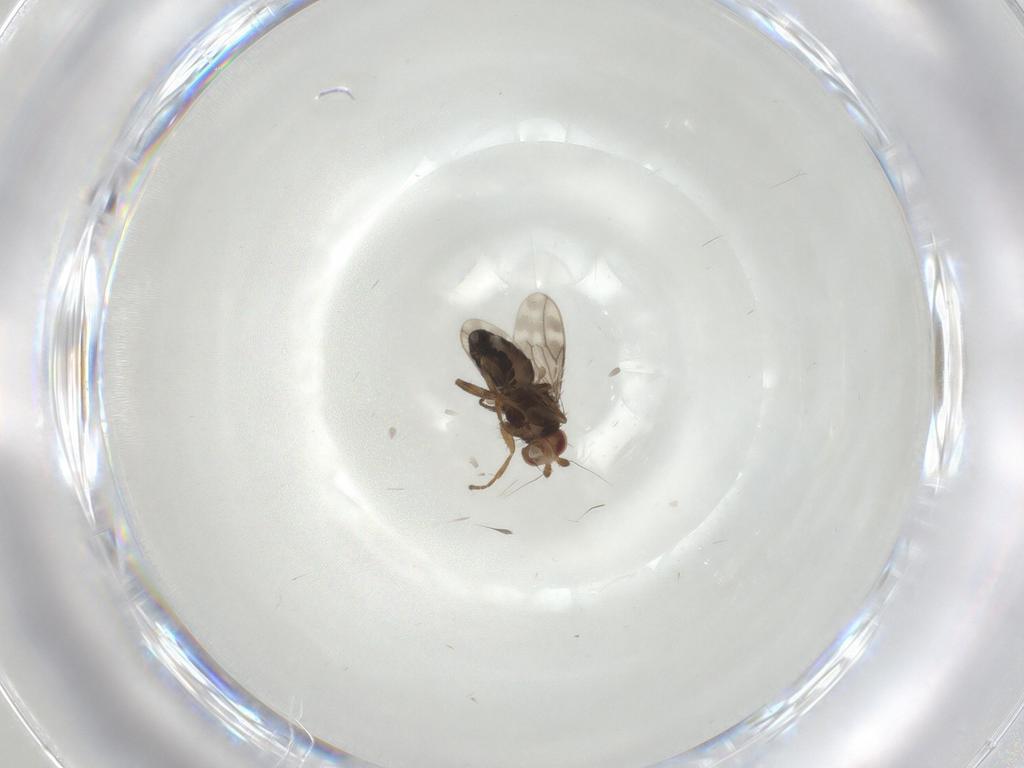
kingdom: Animalia
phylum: Arthropoda
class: Insecta
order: Diptera
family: Sphaeroceridae
